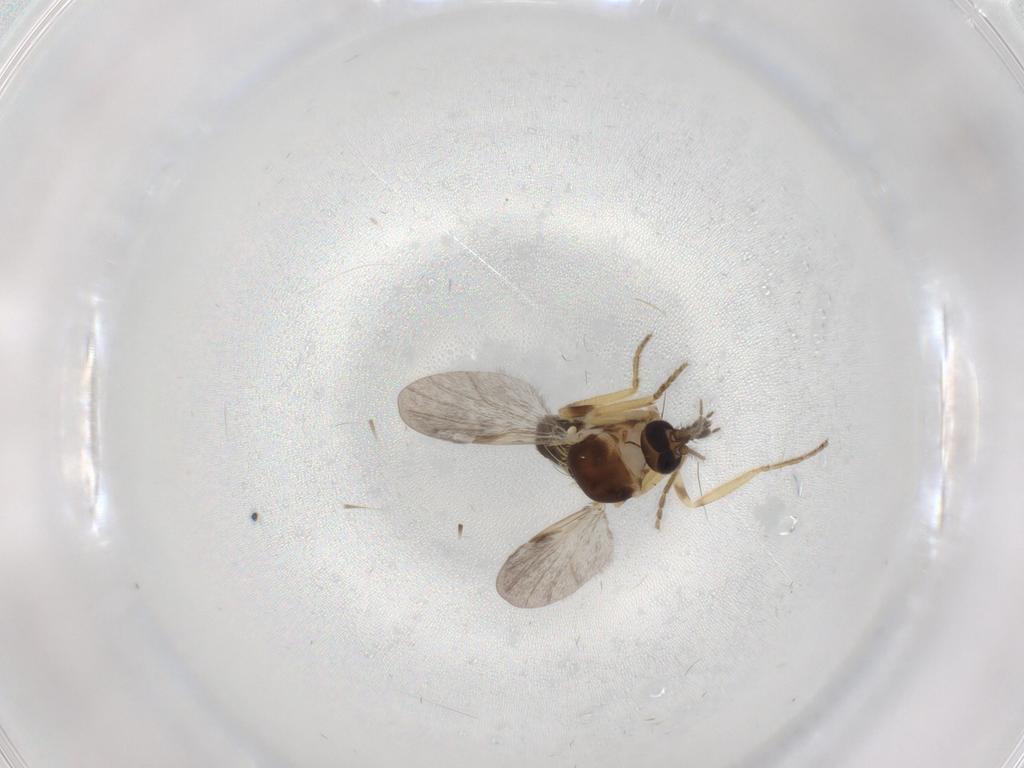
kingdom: Animalia
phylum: Arthropoda
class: Insecta
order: Diptera
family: Ceratopogonidae
